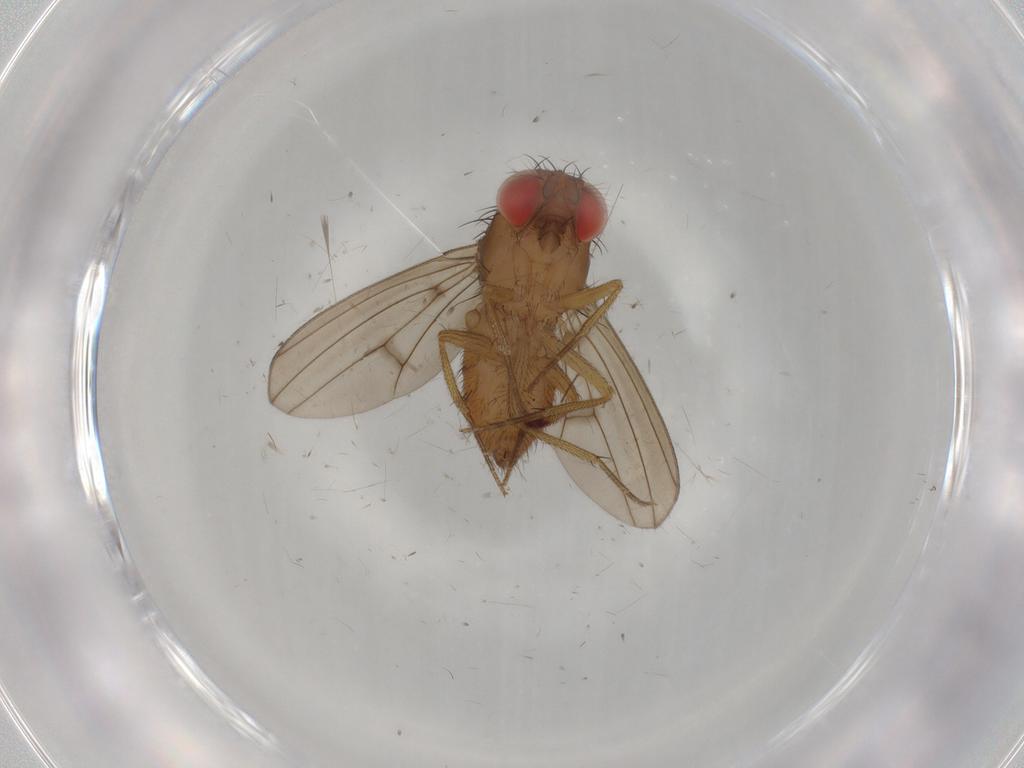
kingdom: Animalia
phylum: Arthropoda
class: Insecta
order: Diptera
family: Drosophilidae
